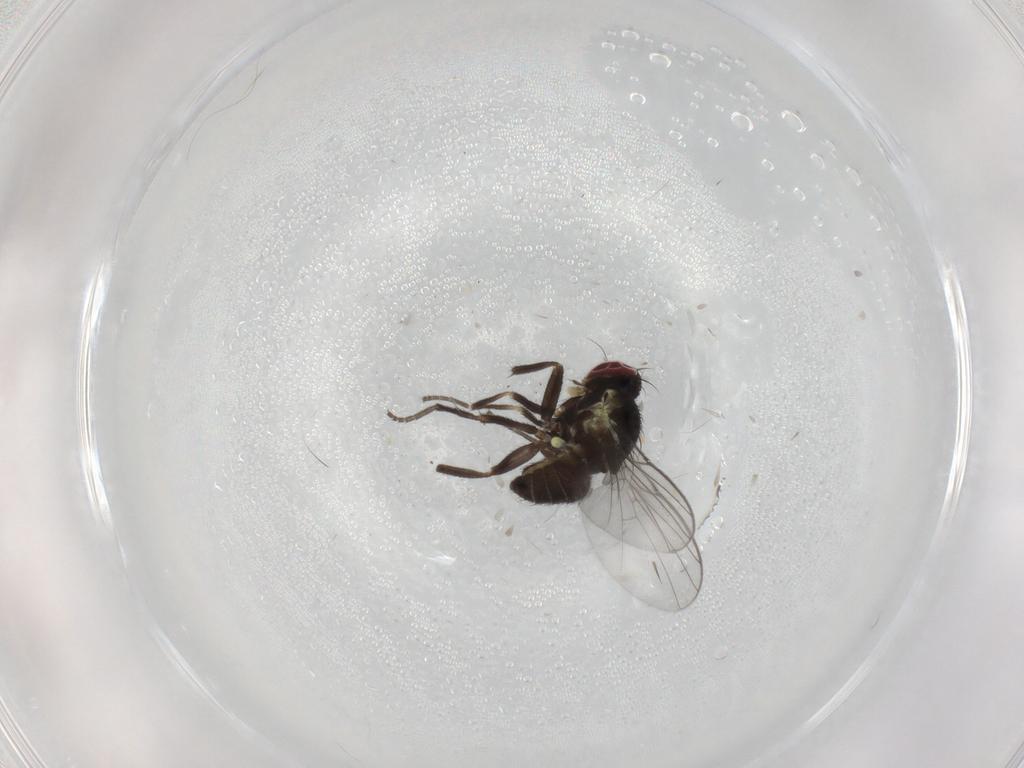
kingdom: Animalia
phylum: Arthropoda
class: Insecta
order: Diptera
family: Agromyzidae
